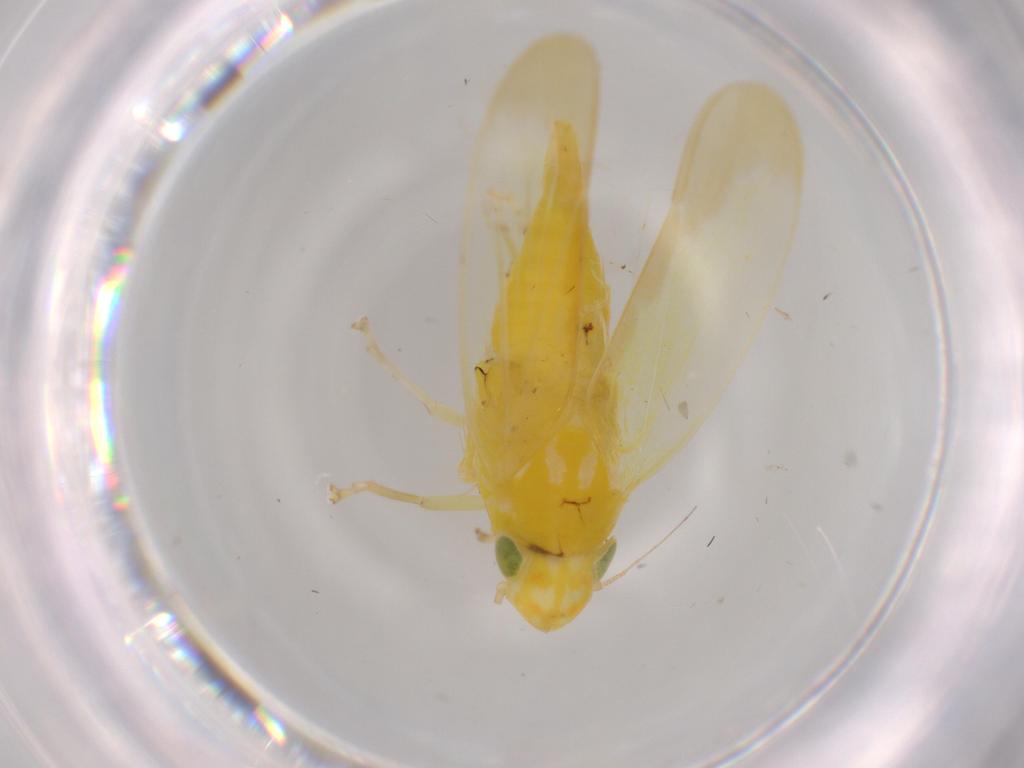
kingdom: Animalia
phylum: Arthropoda
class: Insecta
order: Hemiptera
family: Cicadellidae
